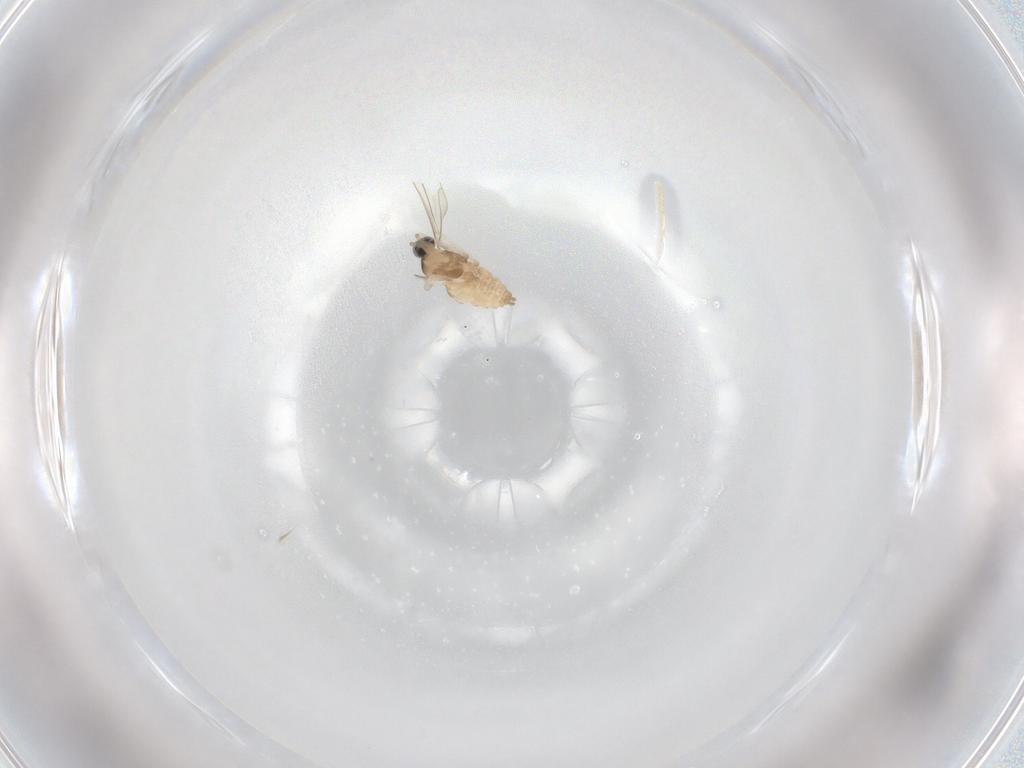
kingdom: Animalia
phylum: Arthropoda
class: Insecta
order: Diptera
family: Cecidomyiidae
